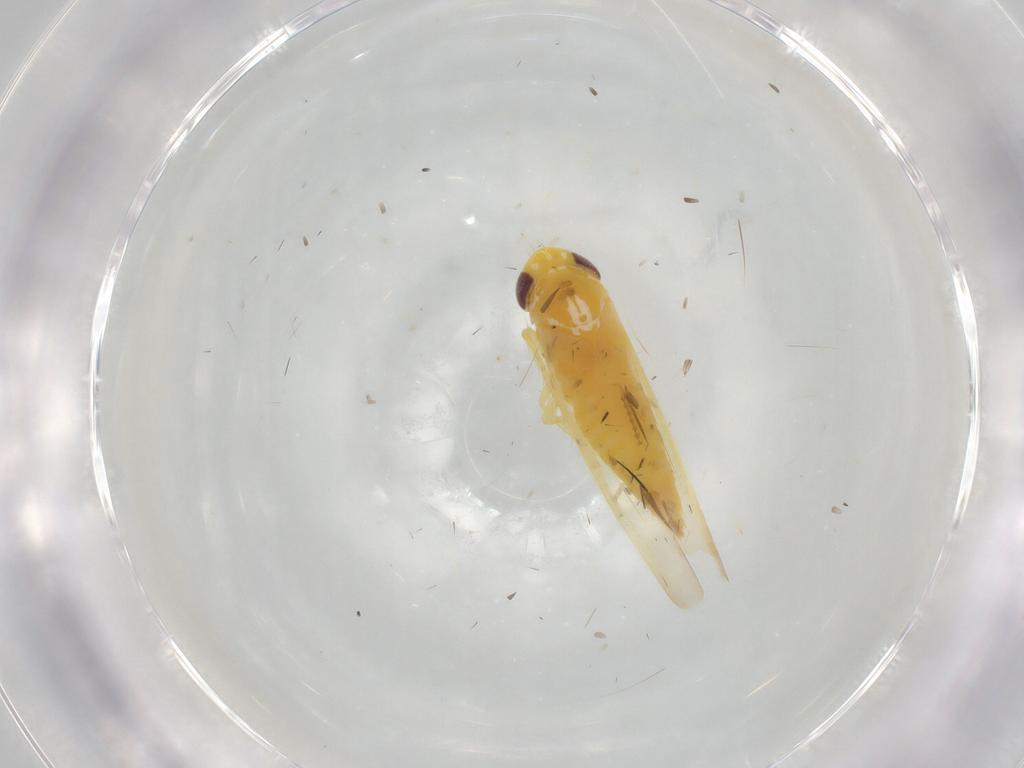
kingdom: Animalia
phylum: Arthropoda
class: Insecta
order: Hemiptera
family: Cicadellidae
